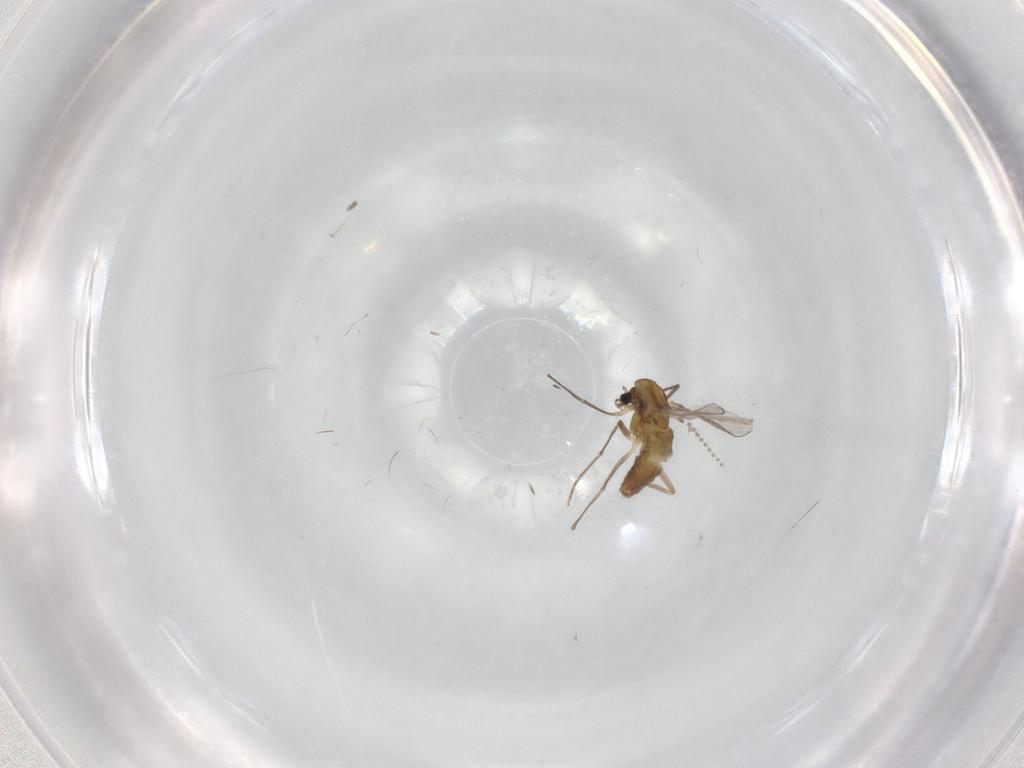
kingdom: Animalia
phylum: Arthropoda
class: Insecta
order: Diptera
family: Chironomidae
